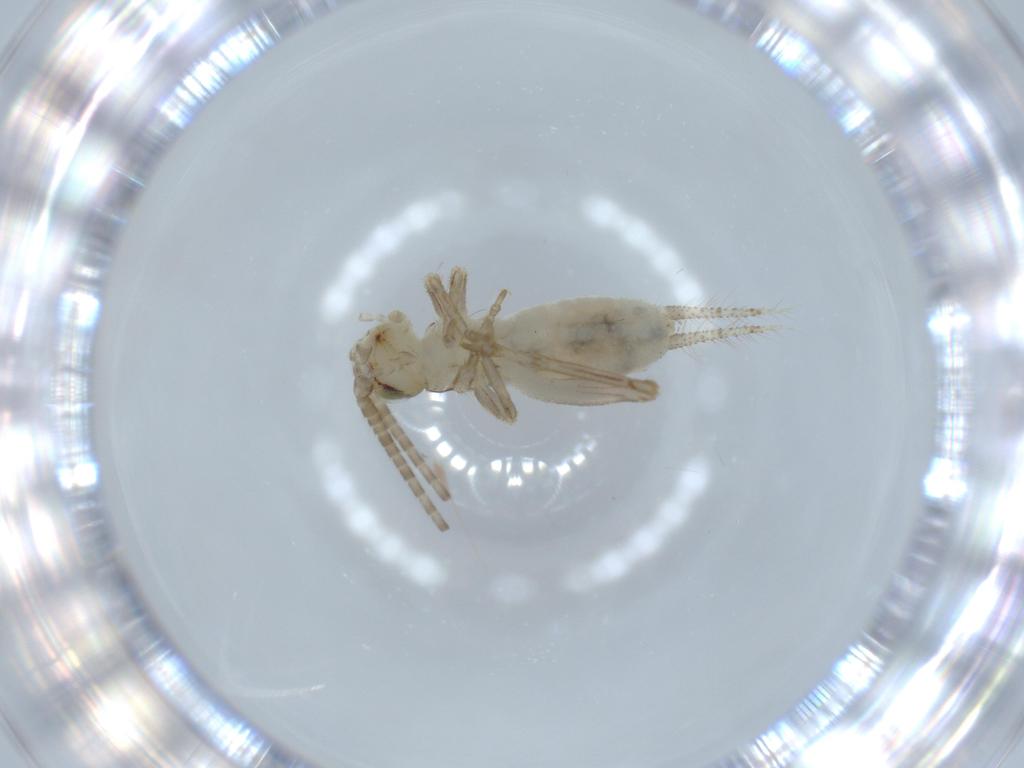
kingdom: Animalia
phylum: Arthropoda
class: Insecta
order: Orthoptera
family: Gryllidae
